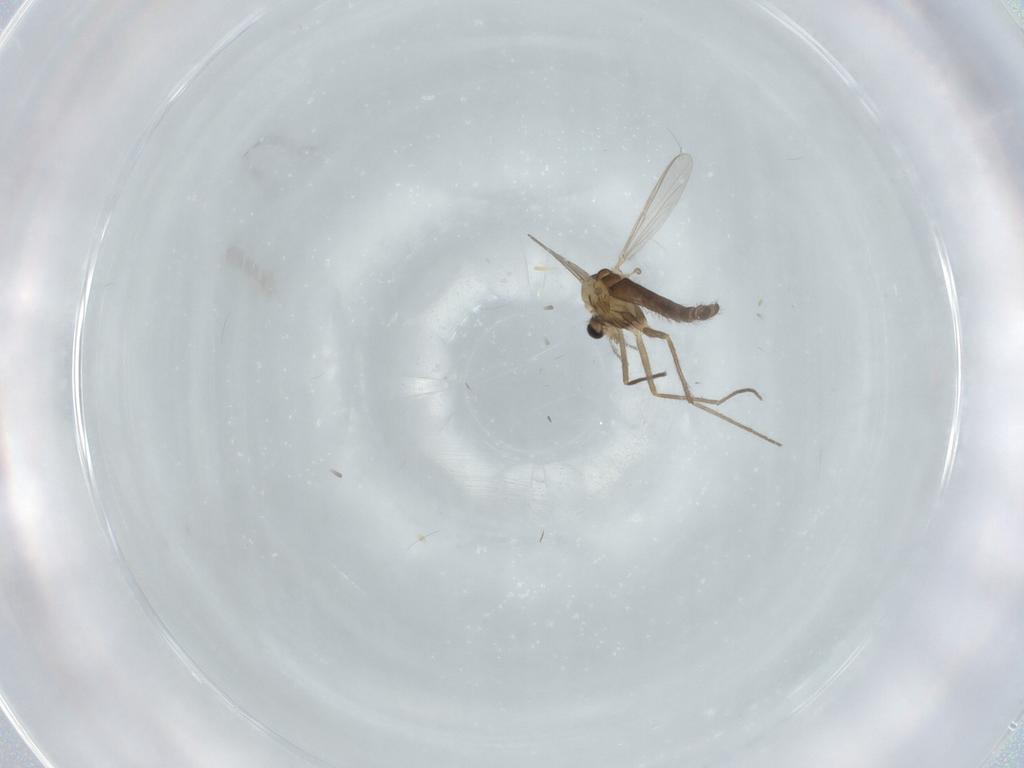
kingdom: Animalia
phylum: Arthropoda
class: Insecta
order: Diptera
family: Chironomidae
